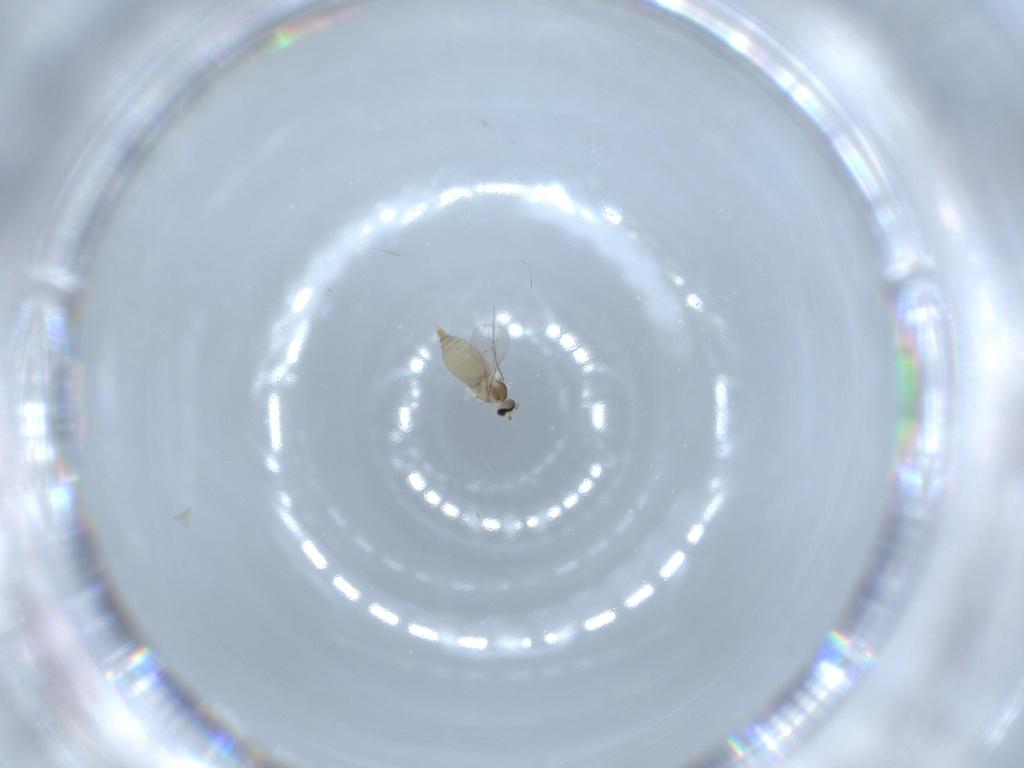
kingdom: Animalia
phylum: Arthropoda
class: Insecta
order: Diptera
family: Cecidomyiidae
